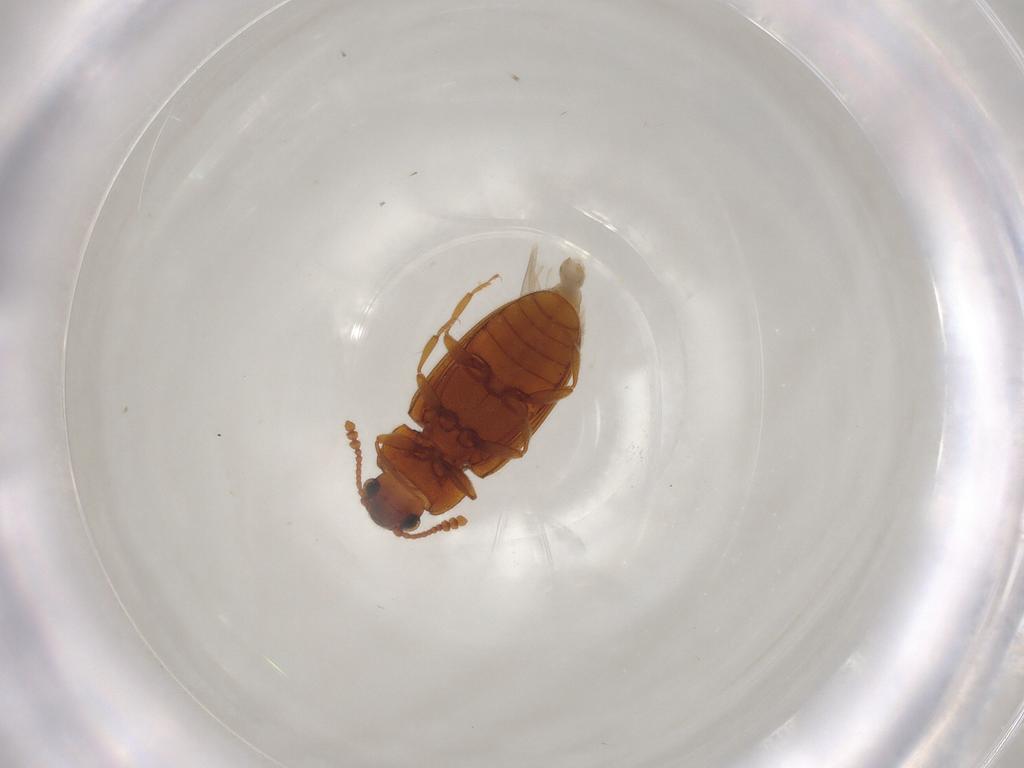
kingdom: Animalia
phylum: Arthropoda
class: Insecta
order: Coleoptera
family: Erotylidae
